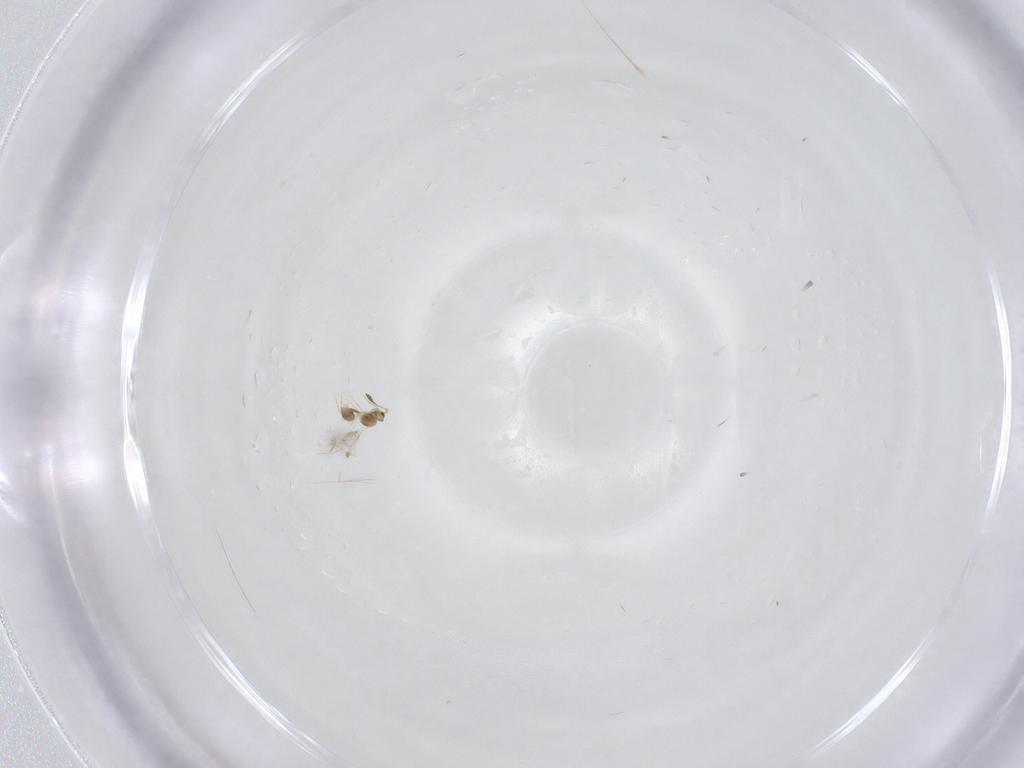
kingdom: Animalia
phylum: Arthropoda
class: Insecta
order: Hymenoptera
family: Mymarommatidae
